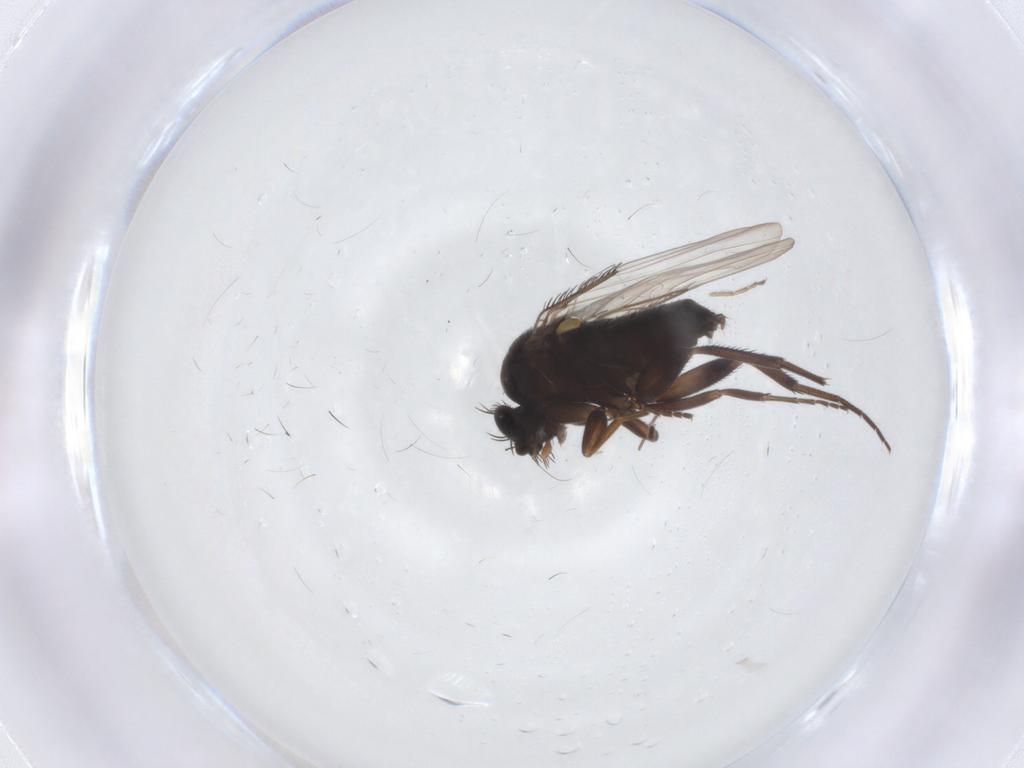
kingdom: Animalia
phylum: Arthropoda
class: Insecta
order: Diptera
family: Phoridae
